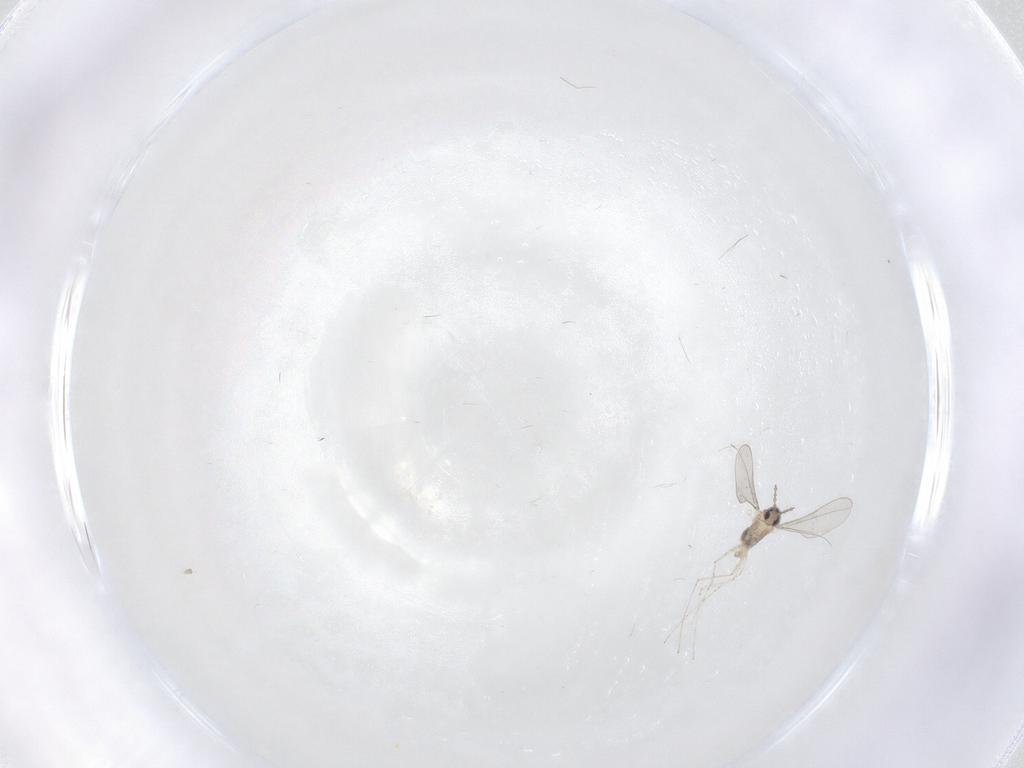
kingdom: Animalia
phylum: Arthropoda
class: Insecta
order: Diptera
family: Cecidomyiidae
